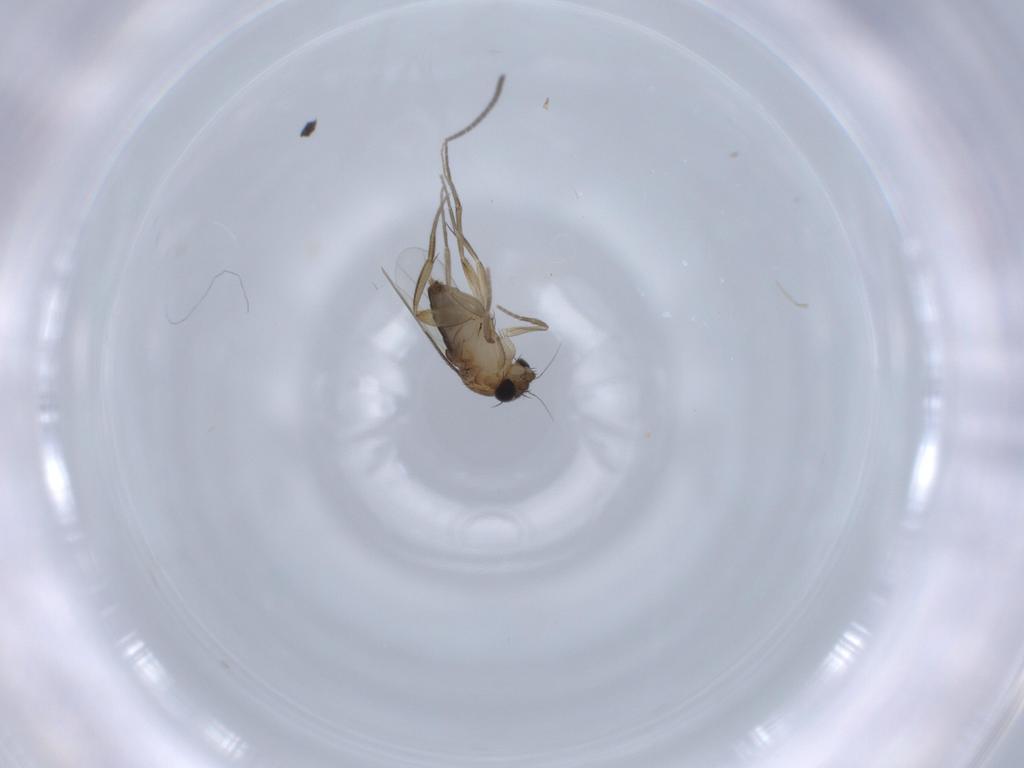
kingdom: Animalia
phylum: Arthropoda
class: Insecta
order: Diptera
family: Phoridae
